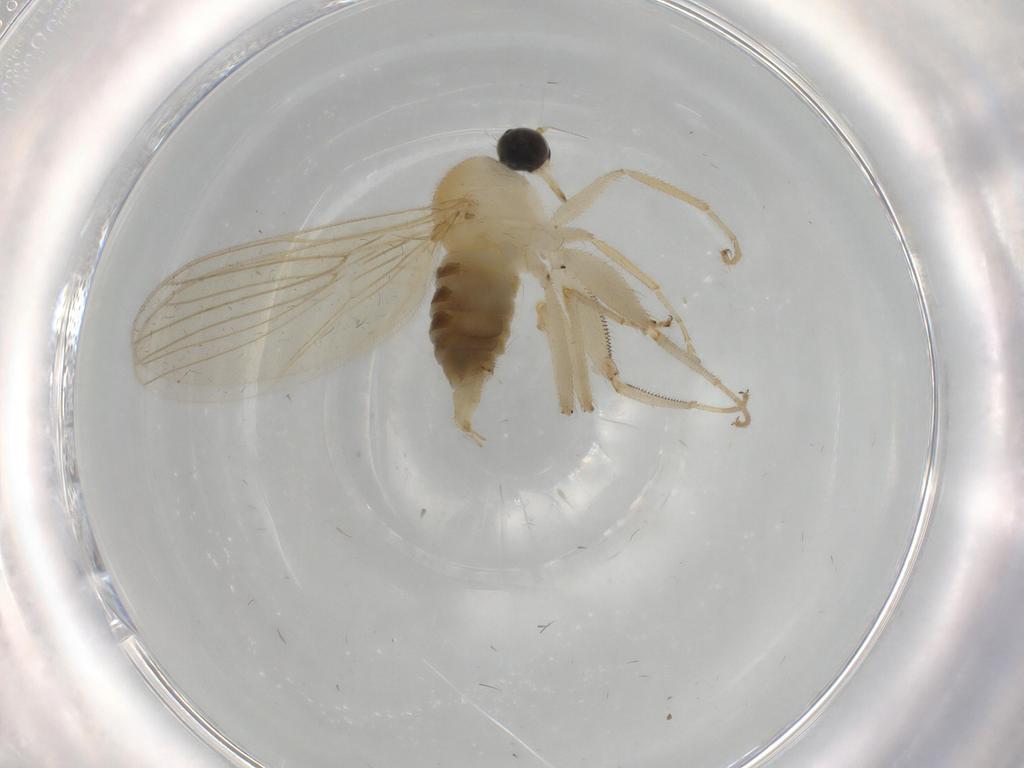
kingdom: Animalia
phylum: Arthropoda
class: Insecta
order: Diptera
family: Hybotidae
